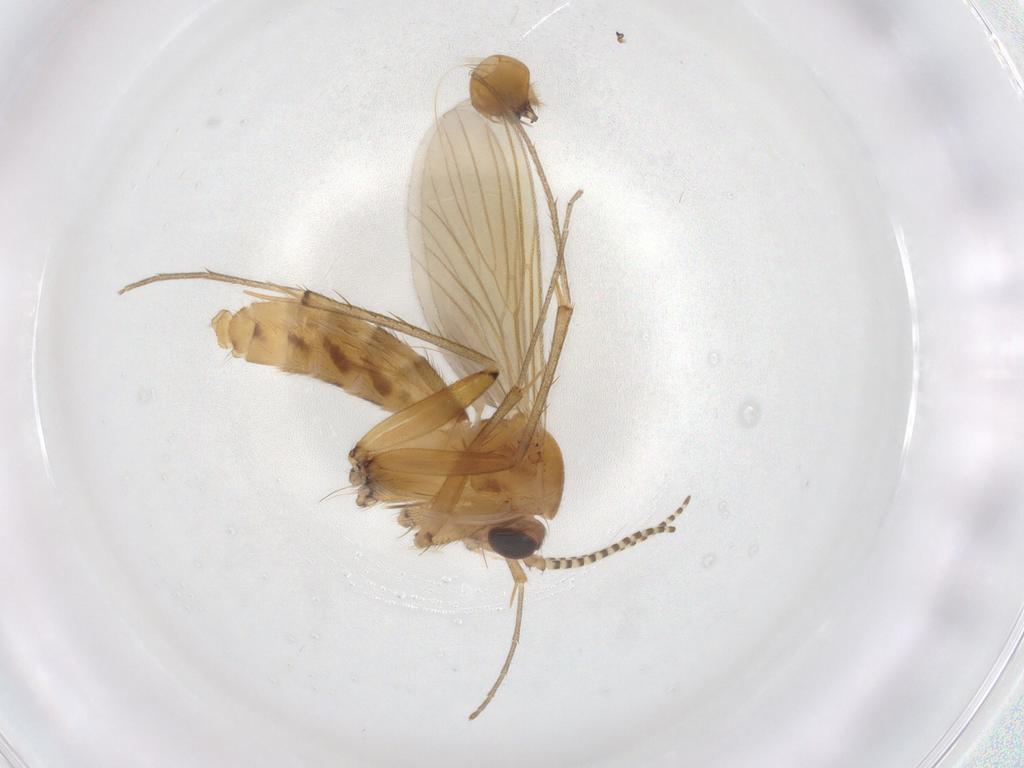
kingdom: Animalia
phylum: Arthropoda
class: Insecta
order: Diptera
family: Mycetophilidae
